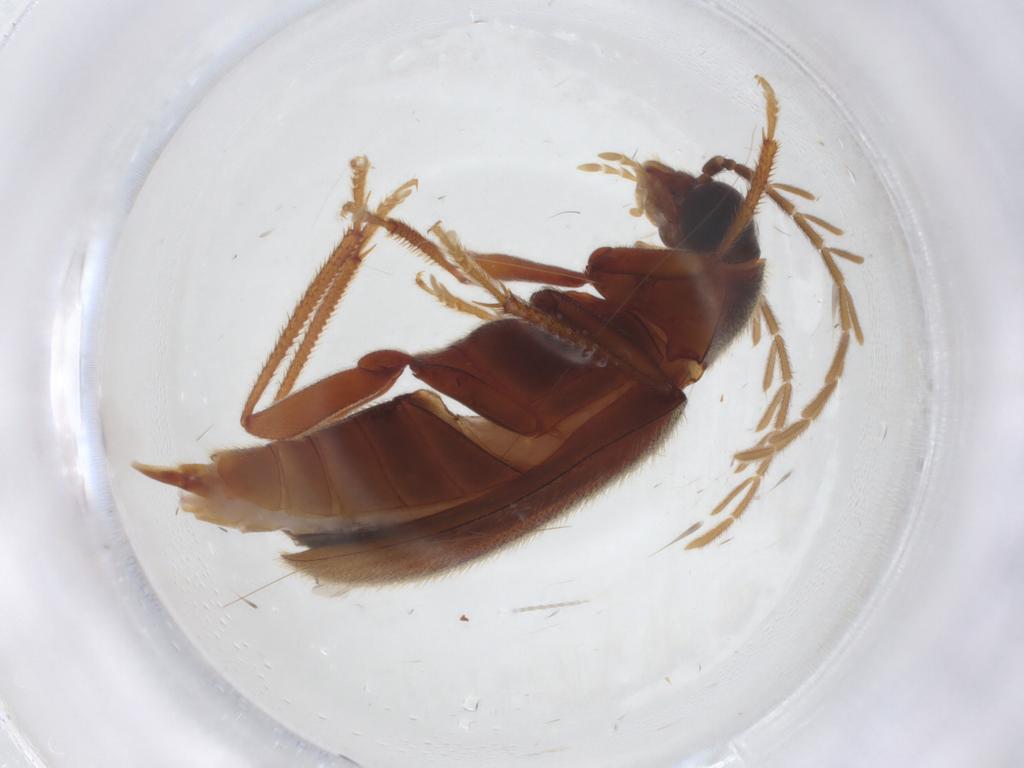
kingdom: Animalia
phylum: Arthropoda
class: Insecta
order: Coleoptera
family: Ptilodactylidae
